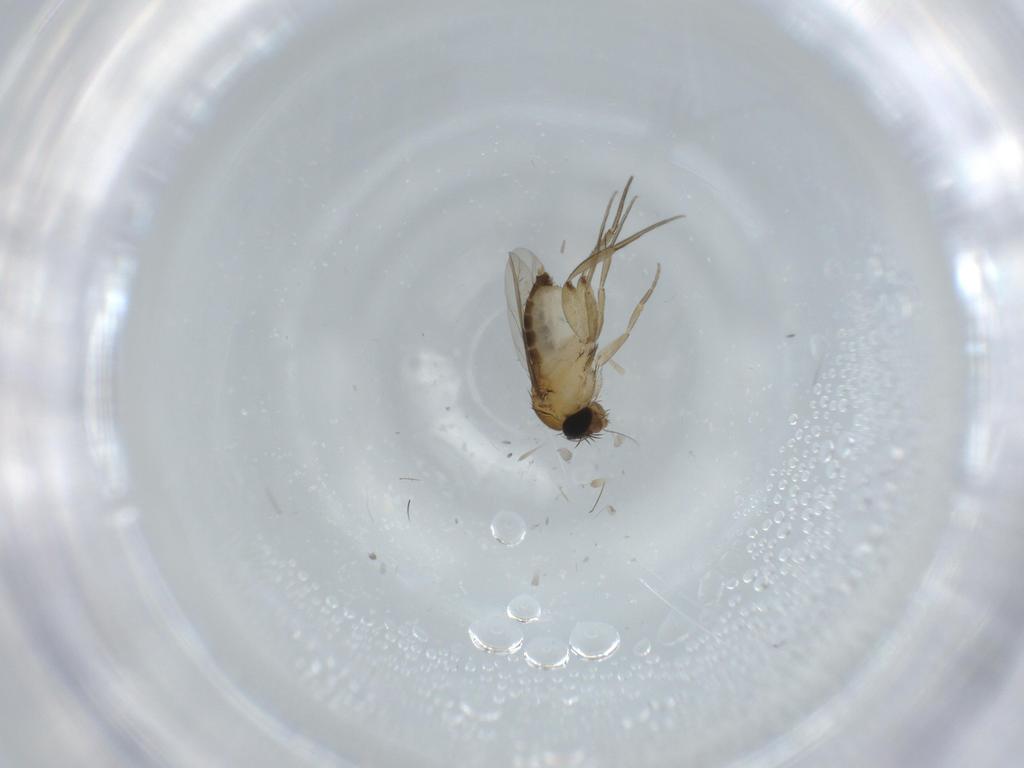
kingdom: Animalia
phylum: Arthropoda
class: Insecta
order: Diptera
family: Phoridae
